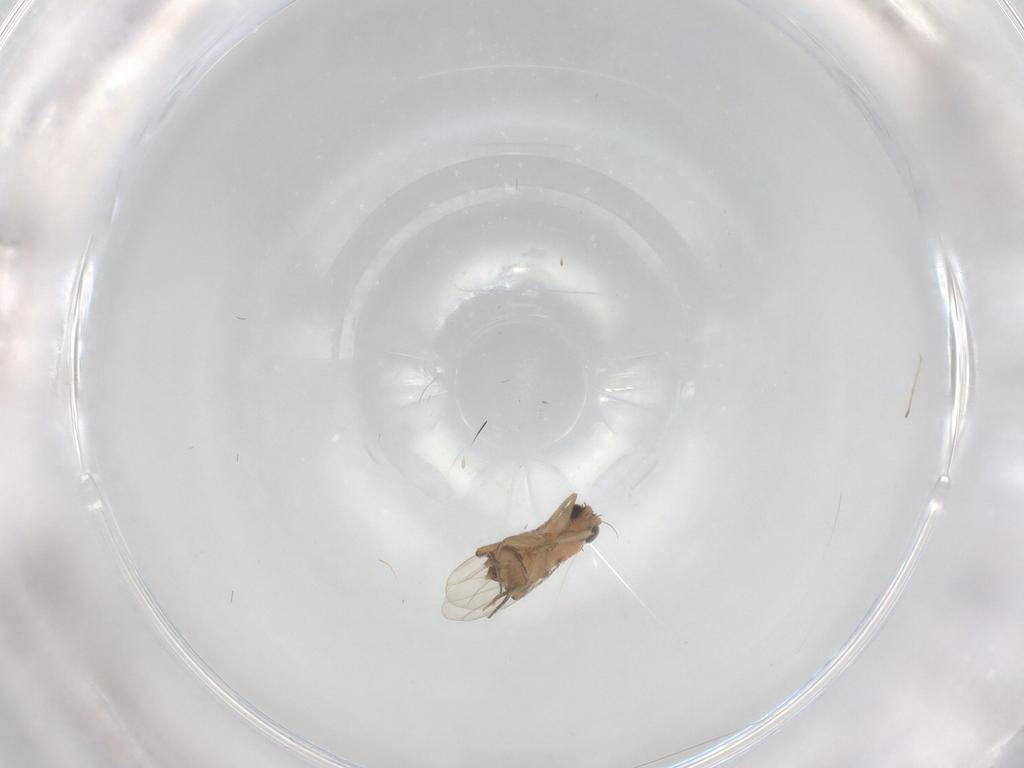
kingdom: Animalia
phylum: Arthropoda
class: Insecta
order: Diptera
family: Phoridae
